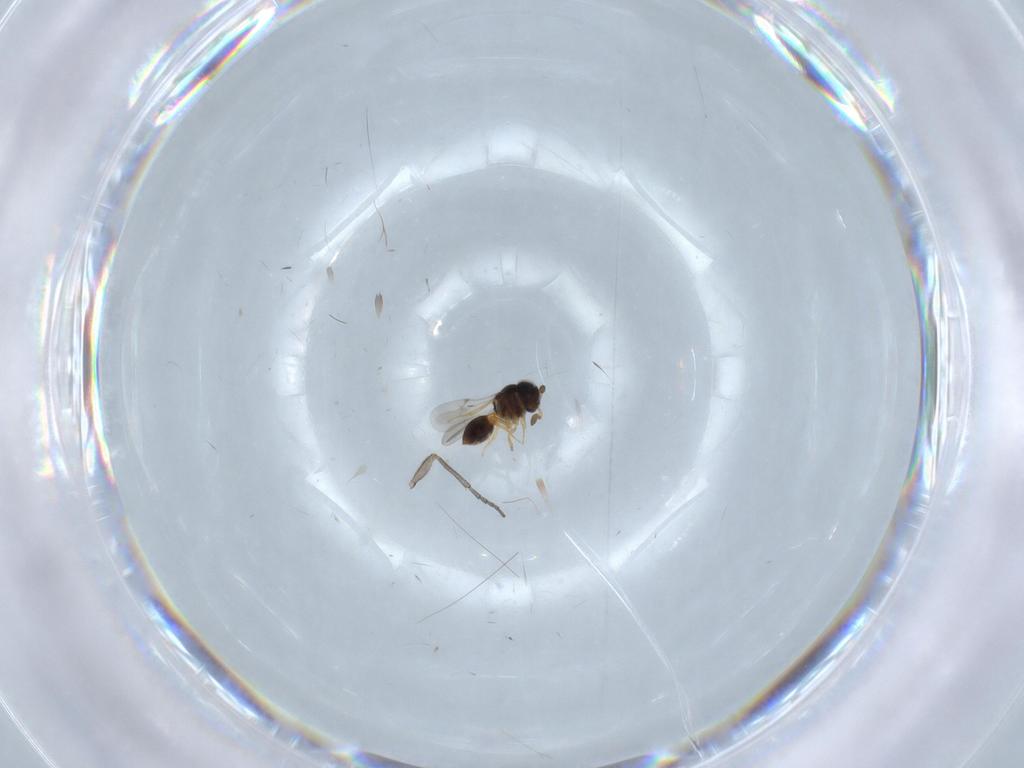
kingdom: Animalia
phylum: Arthropoda
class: Insecta
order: Hymenoptera
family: Scelionidae
